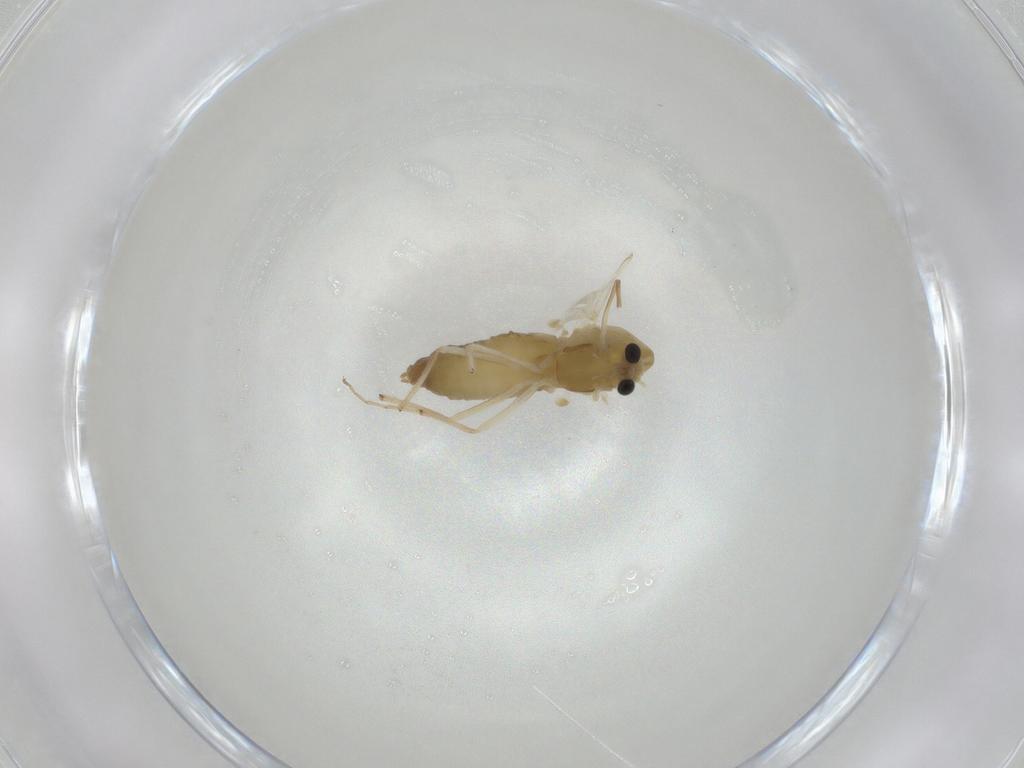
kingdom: Animalia
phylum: Arthropoda
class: Insecta
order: Diptera
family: Chironomidae
